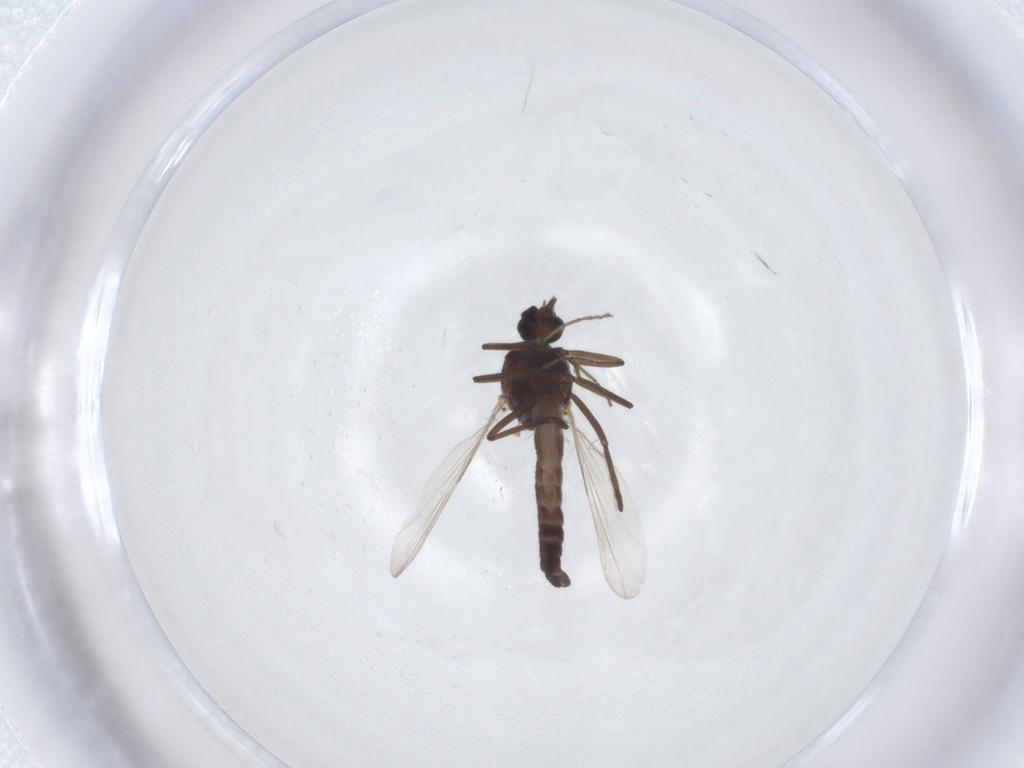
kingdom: Animalia
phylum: Arthropoda
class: Insecta
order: Diptera
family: Ceratopogonidae
